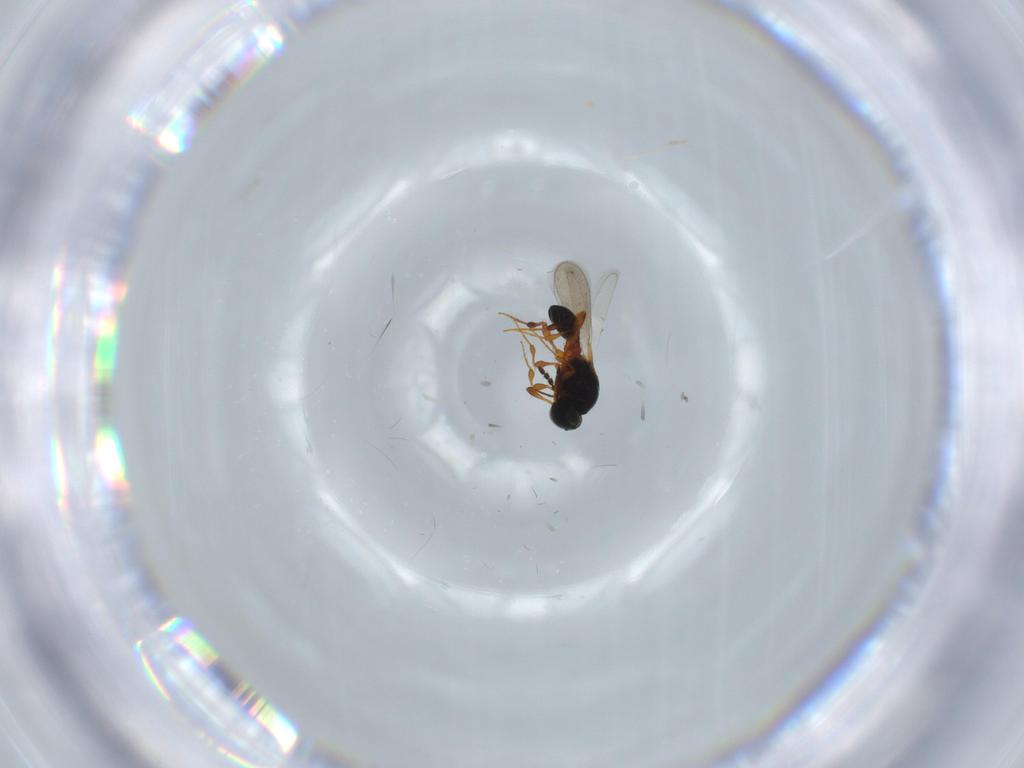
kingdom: Animalia
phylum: Arthropoda
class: Insecta
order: Hymenoptera
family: Platygastridae
